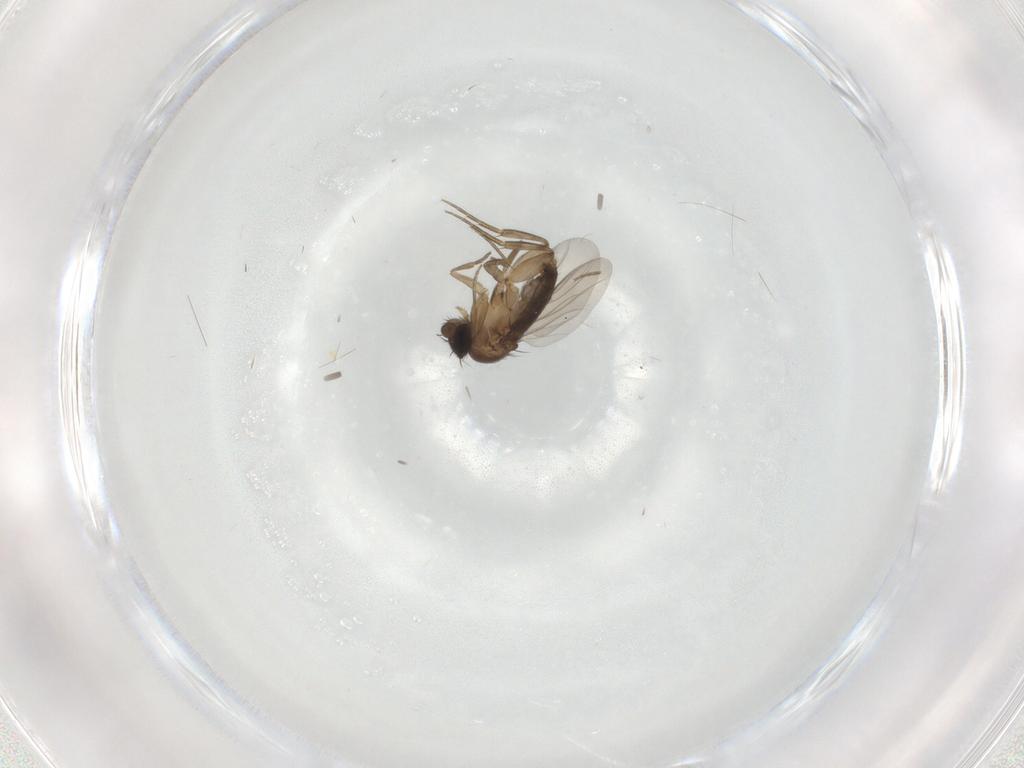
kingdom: Animalia
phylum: Arthropoda
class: Insecta
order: Diptera
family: Phoridae
